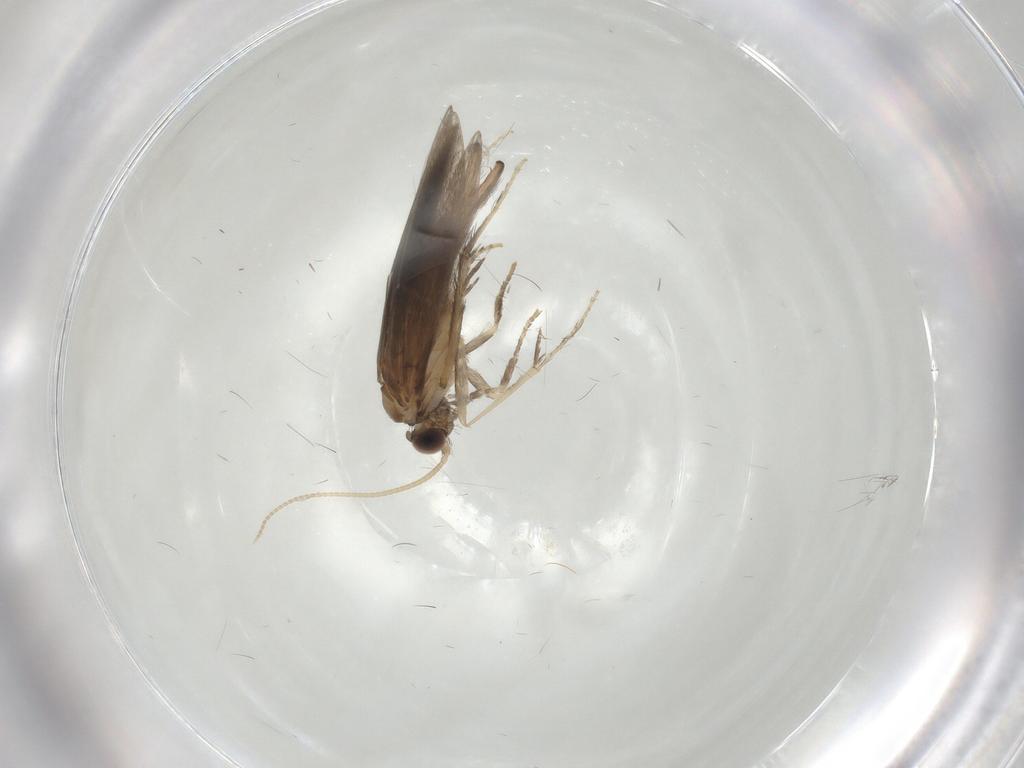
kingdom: Animalia
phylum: Arthropoda
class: Insecta
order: Trichoptera
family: Hydroptilidae
